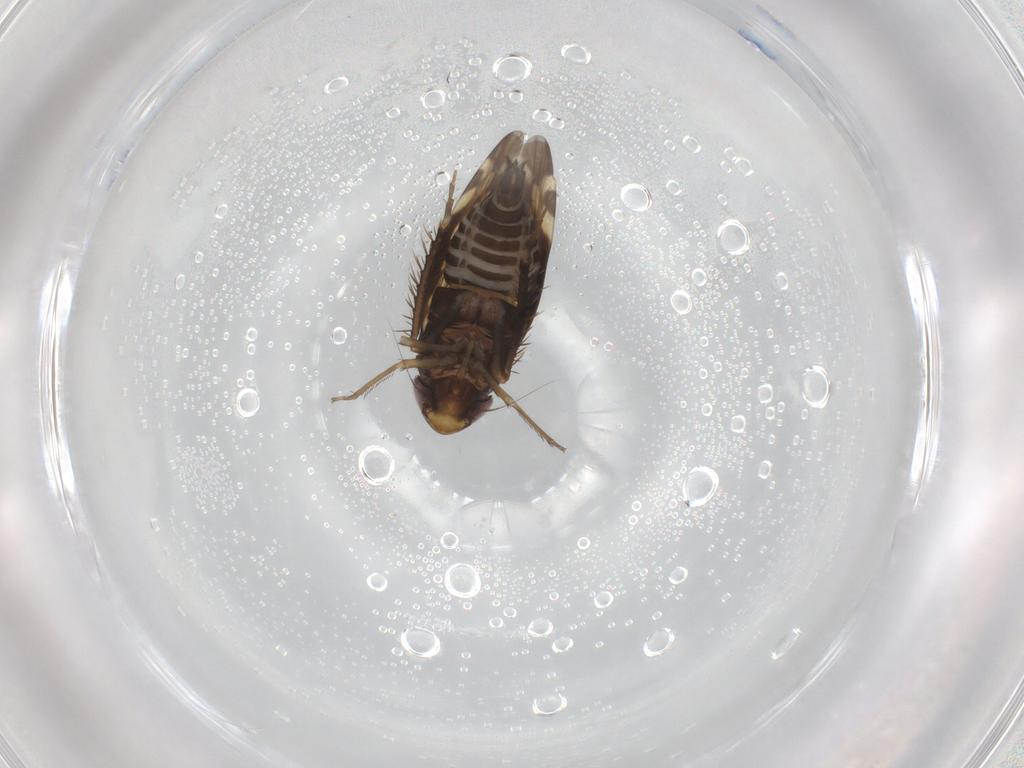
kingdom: Animalia
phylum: Arthropoda
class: Insecta
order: Hemiptera
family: Cicadellidae
